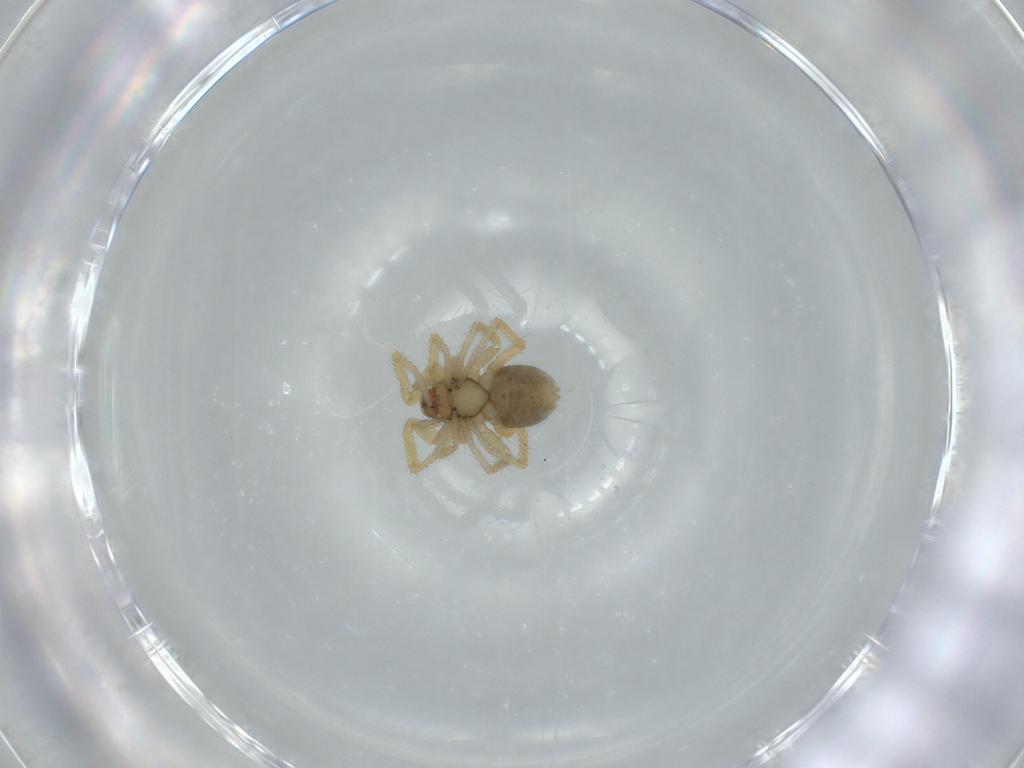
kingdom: Animalia
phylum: Arthropoda
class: Arachnida
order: Araneae
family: Linyphiidae
